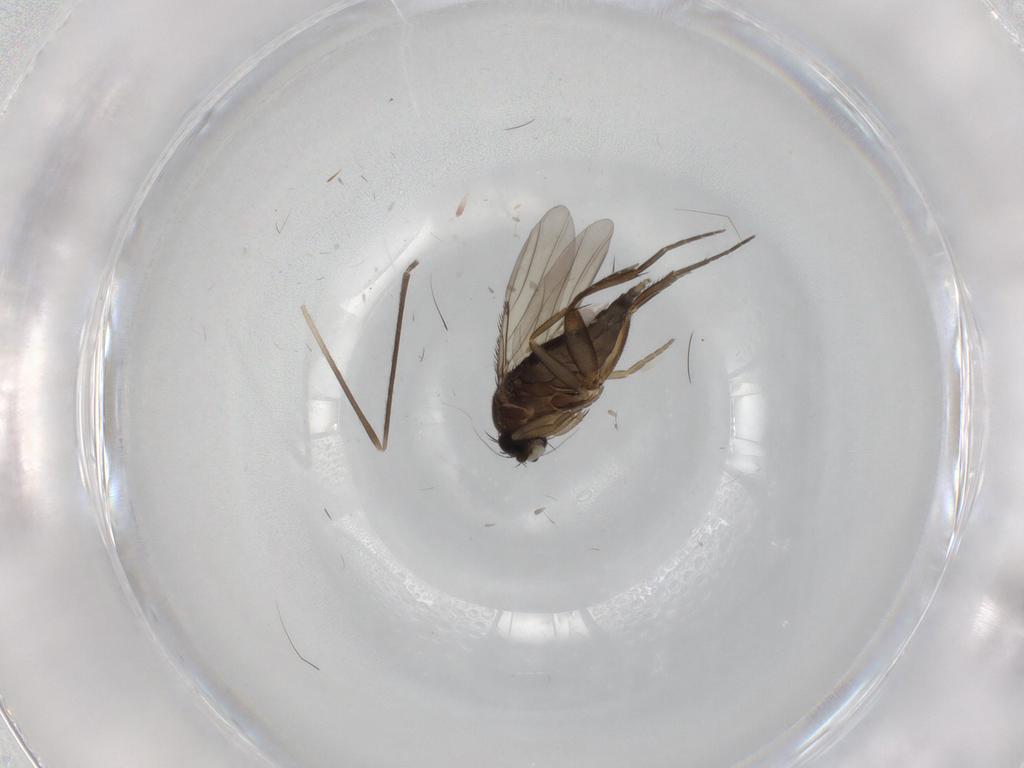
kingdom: Animalia
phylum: Arthropoda
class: Insecta
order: Diptera
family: Phoridae
